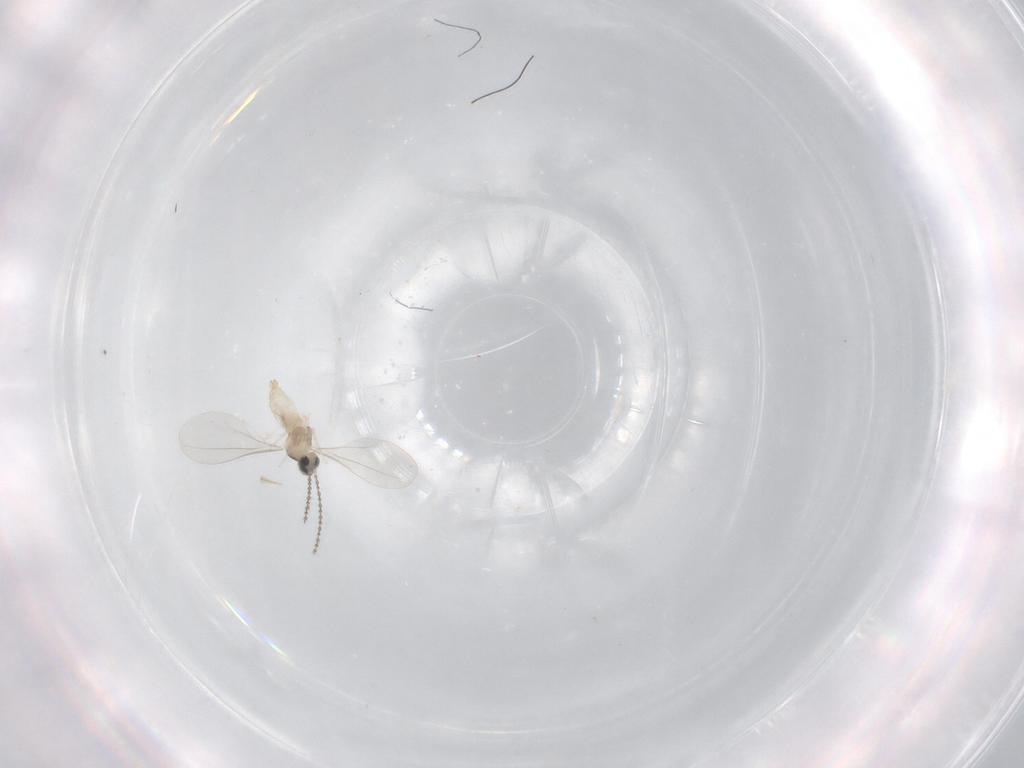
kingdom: Animalia
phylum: Arthropoda
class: Insecta
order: Diptera
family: Cecidomyiidae
